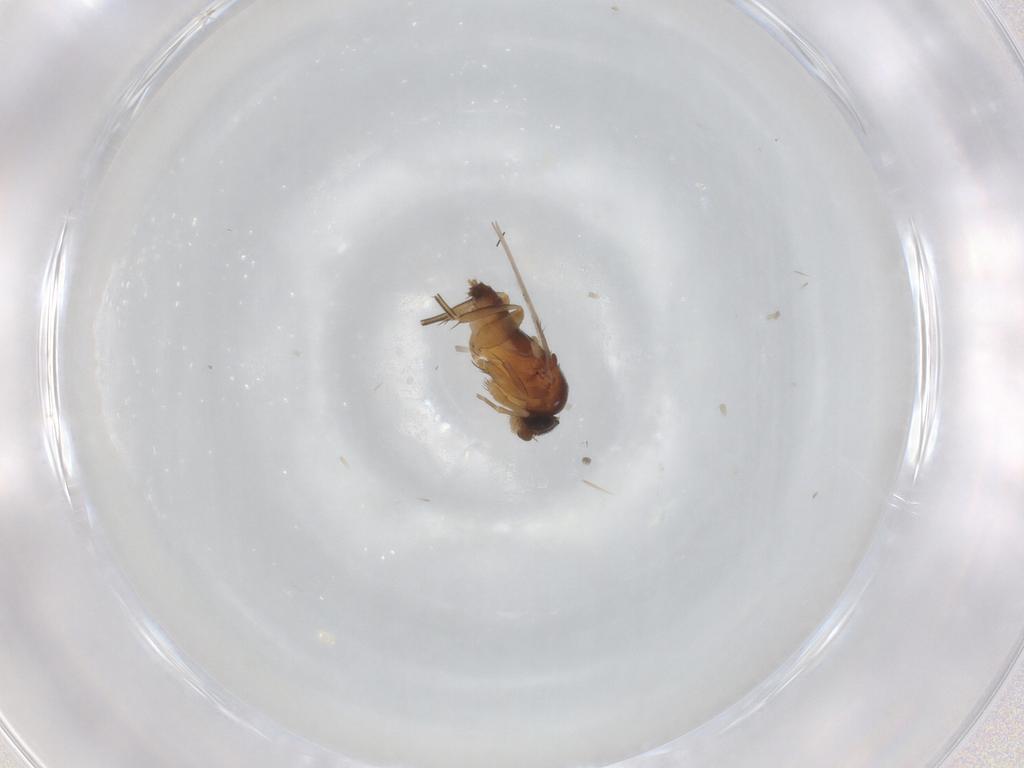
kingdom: Animalia
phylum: Arthropoda
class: Insecta
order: Diptera
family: Phoridae
